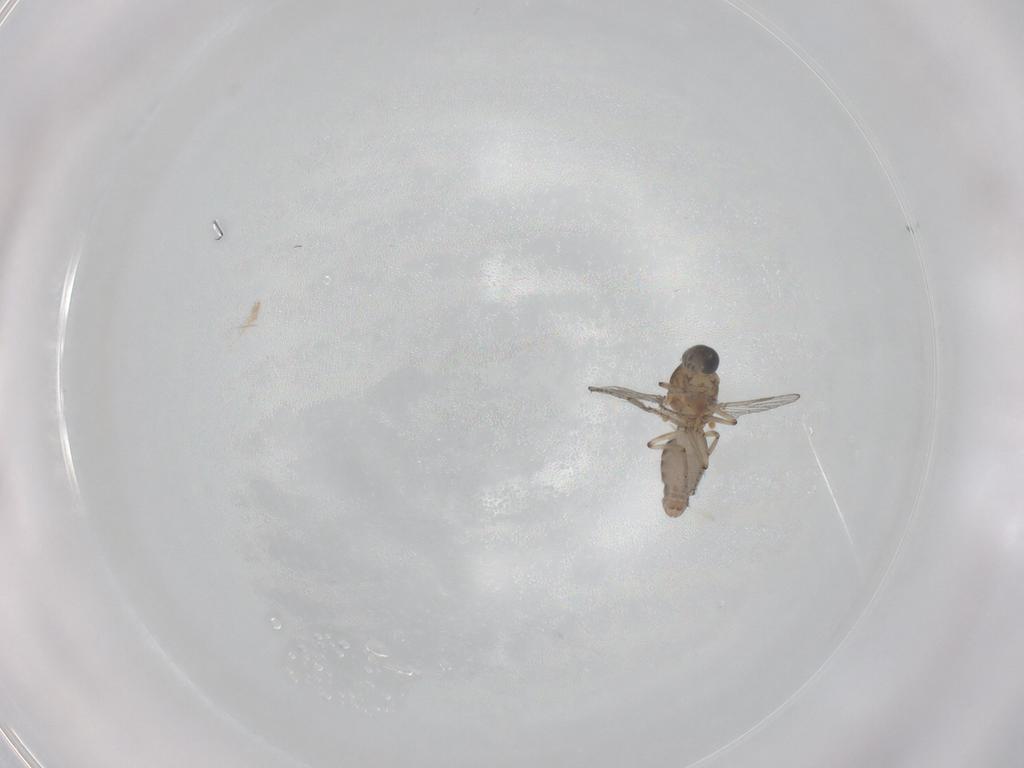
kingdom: Animalia
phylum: Arthropoda
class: Insecta
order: Diptera
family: Ceratopogonidae
